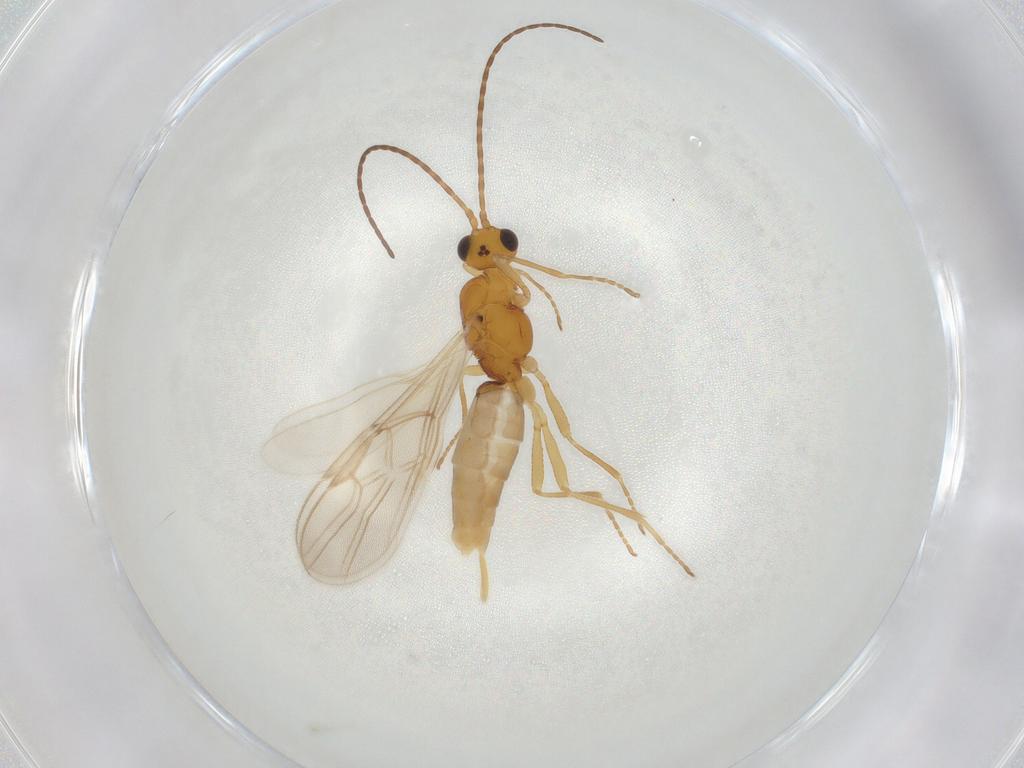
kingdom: Animalia
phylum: Arthropoda
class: Insecta
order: Hymenoptera
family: Braconidae
